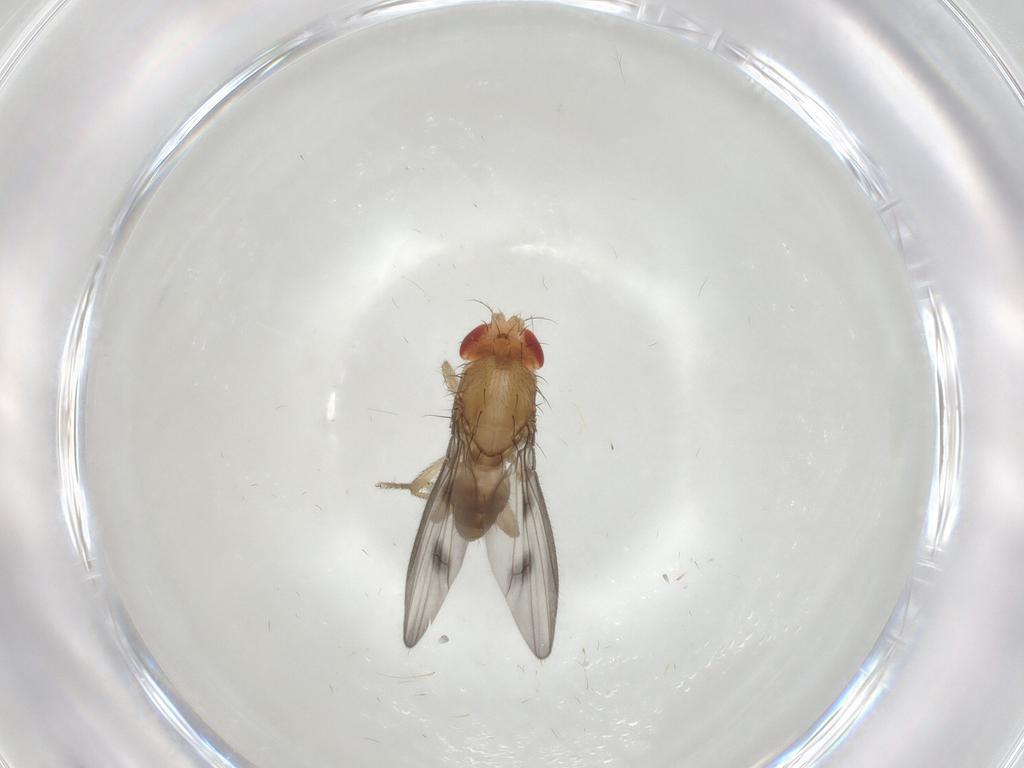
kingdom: Animalia
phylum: Arthropoda
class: Insecta
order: Diptera
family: Drosophilidae
